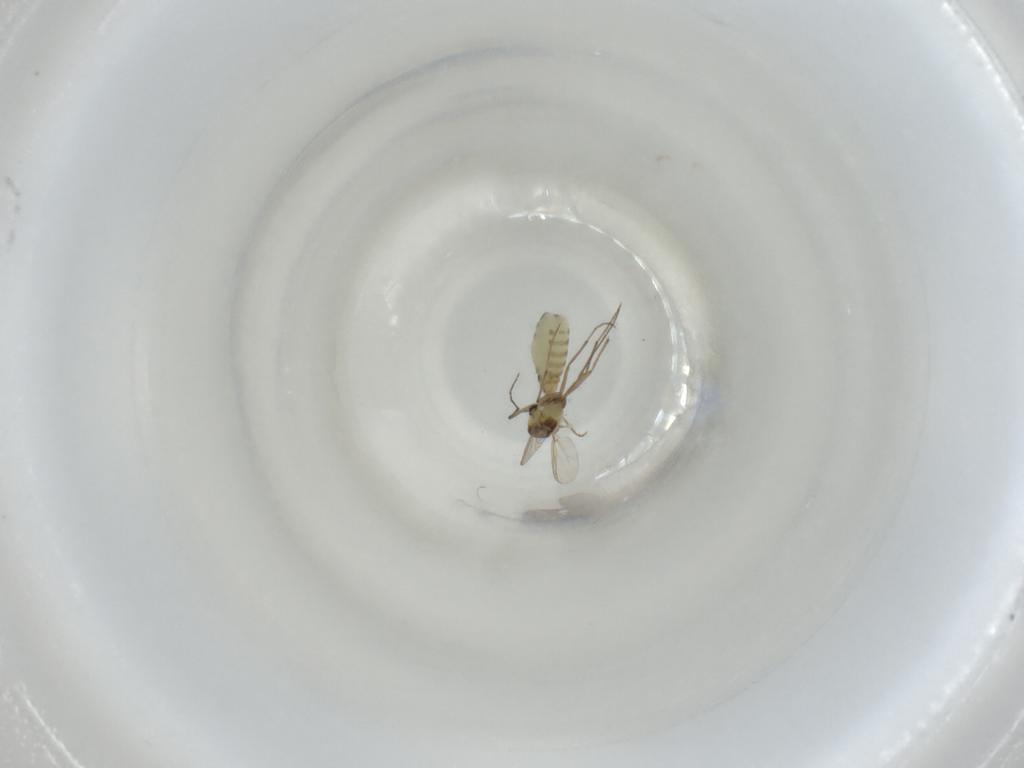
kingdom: Animalia
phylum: Arthropoda
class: Insecta
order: Diptera
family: Chironomidae
